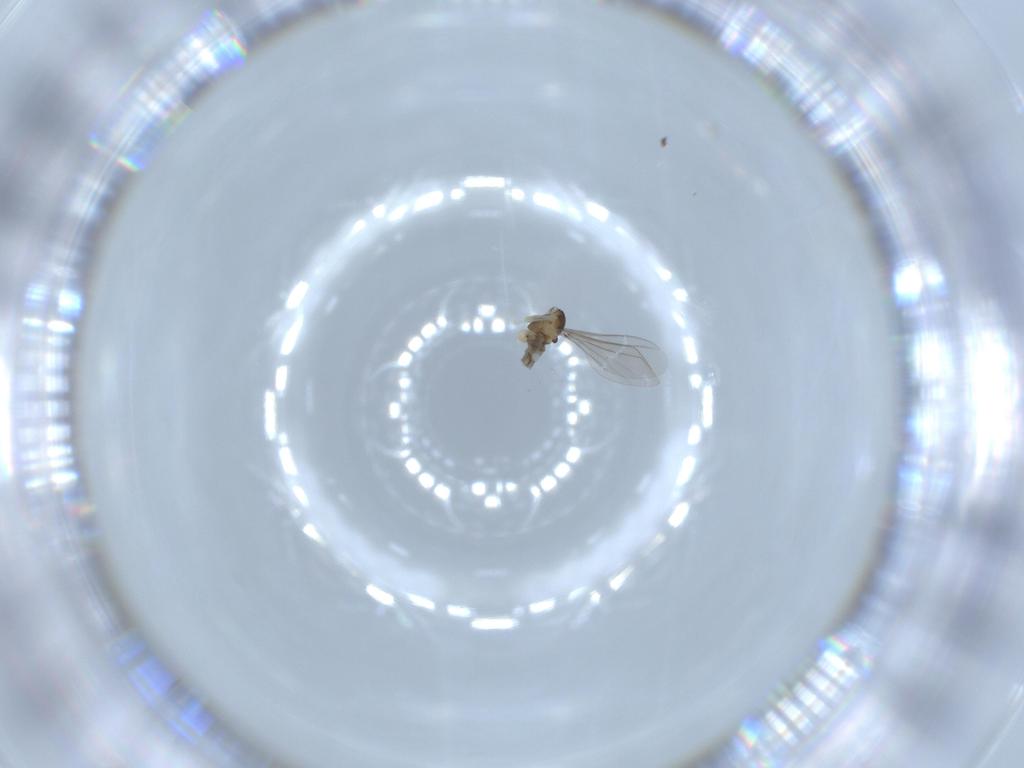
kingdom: Animalia
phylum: Arthropoda
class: Insecta
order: Diptera
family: Cecidomyiidae
